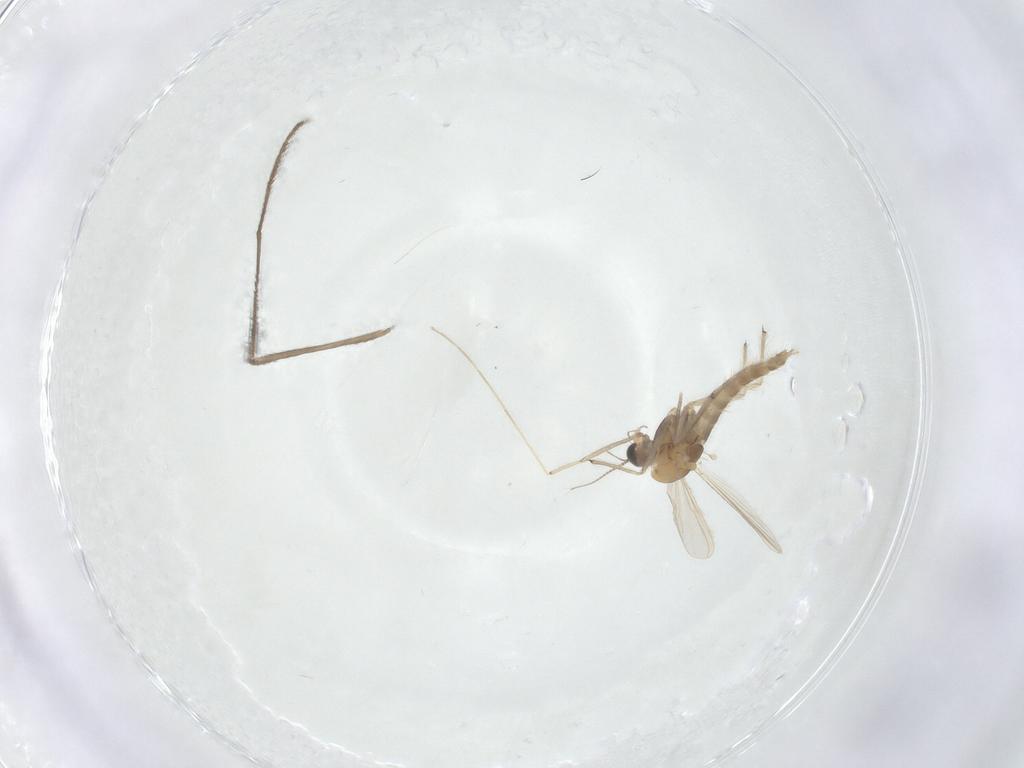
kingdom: Animalia
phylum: Arthropoda
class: Insecta
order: Diptera
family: Chironomidae
